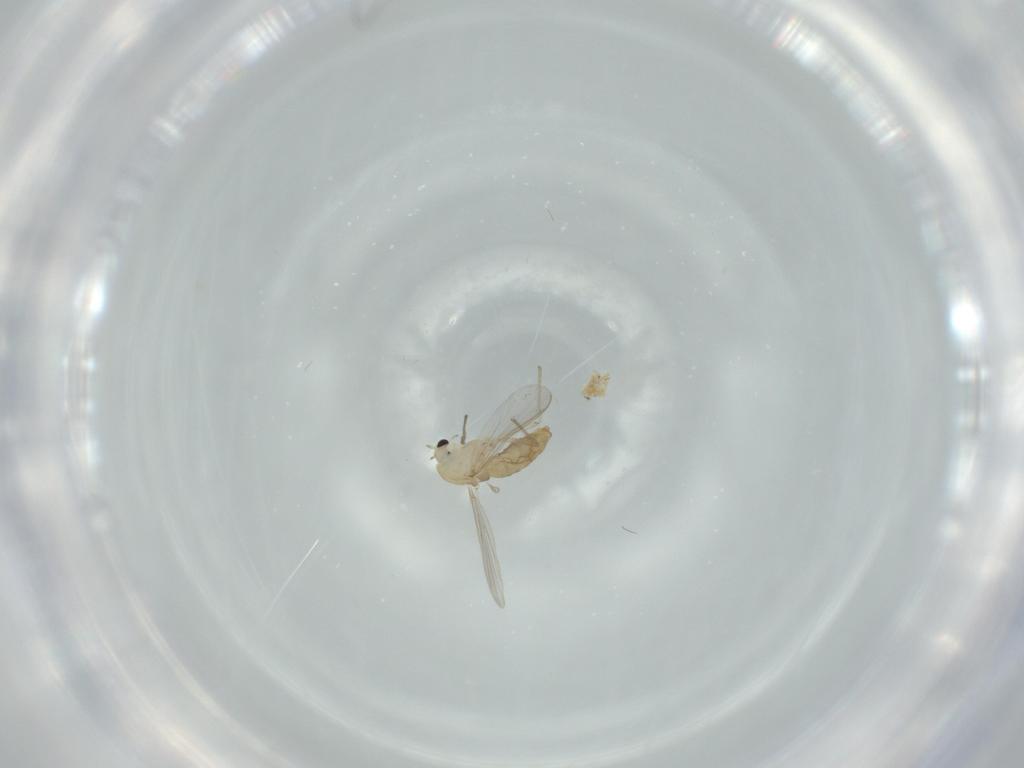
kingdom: Animalia
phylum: Arthropoda
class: Insecta
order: Diptera
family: Chironomidae
